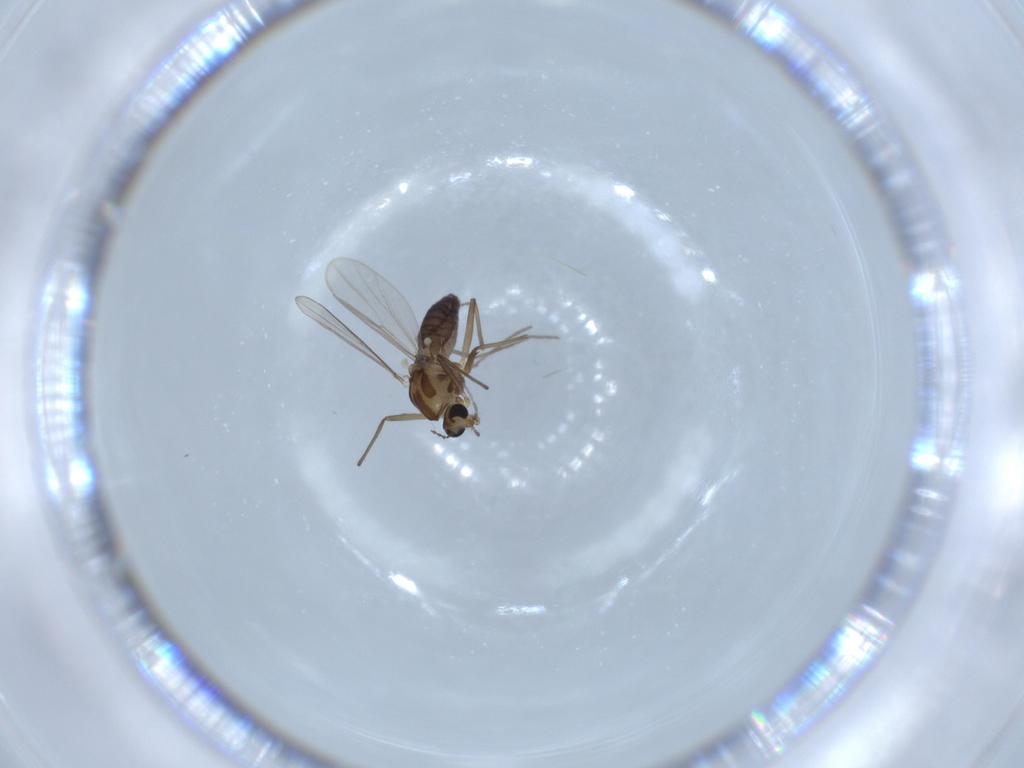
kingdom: Animalia
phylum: Arthropoda
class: Insecta
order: Diptera
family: Chironomidae
